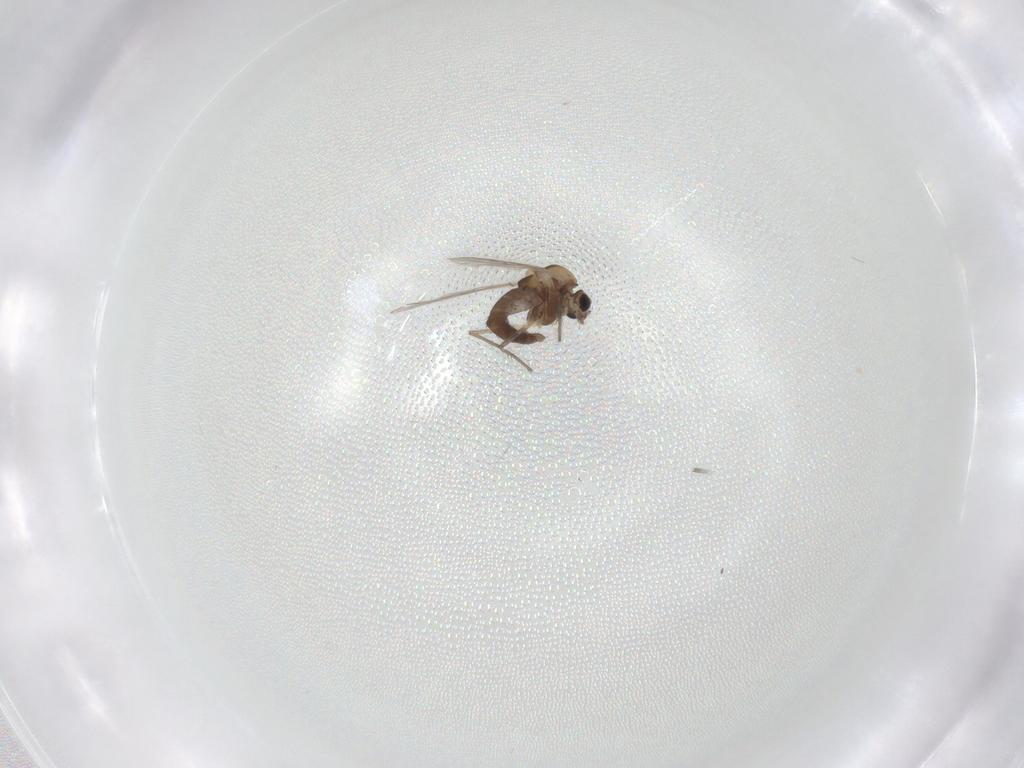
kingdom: Animalia
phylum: Arthropoda
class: Insecta
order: Diptera
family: Chironomidae
